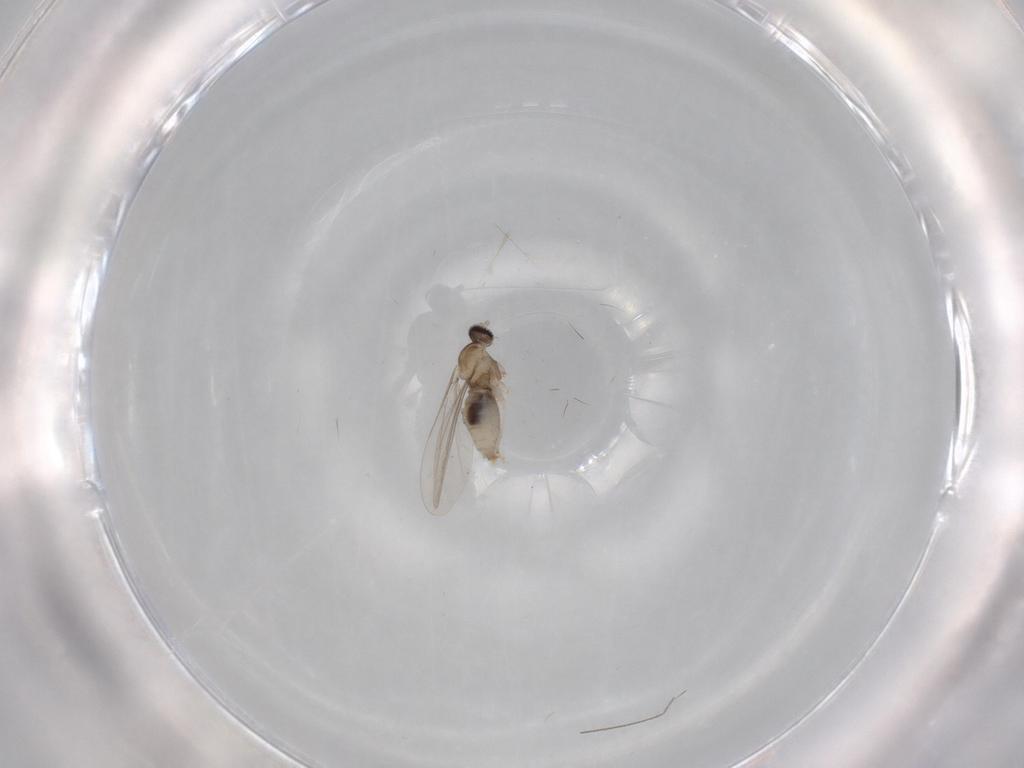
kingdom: Animalia
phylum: Arthropoda
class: Insecta
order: Diptera
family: Cecidomyiidae
